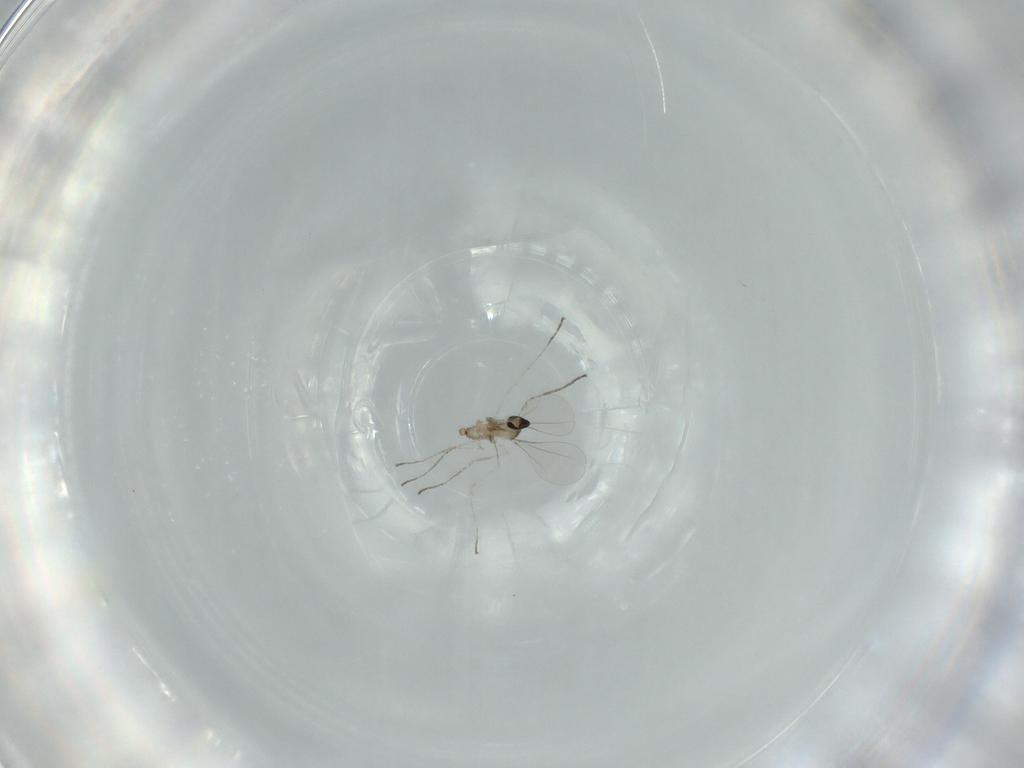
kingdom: Animalia
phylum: Arthropoda
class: Insecta
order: Diptera
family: Cecidomyiidae
